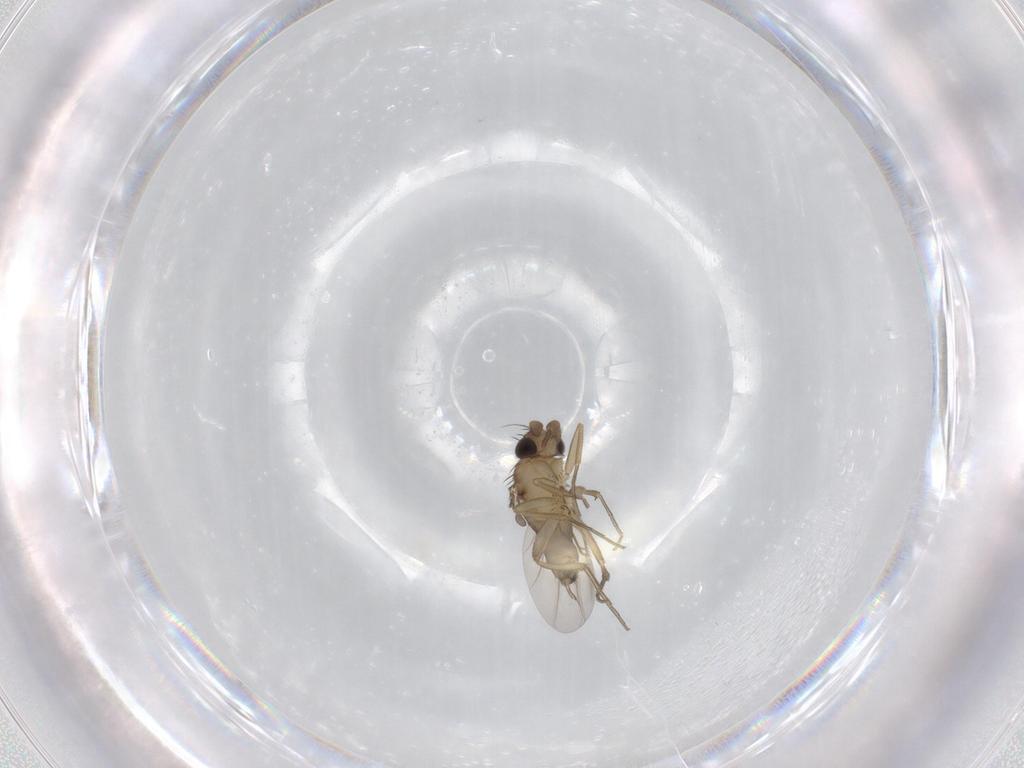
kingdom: Animalia
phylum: Arthropoda
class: Insecta
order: Diptera
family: Phoridae
